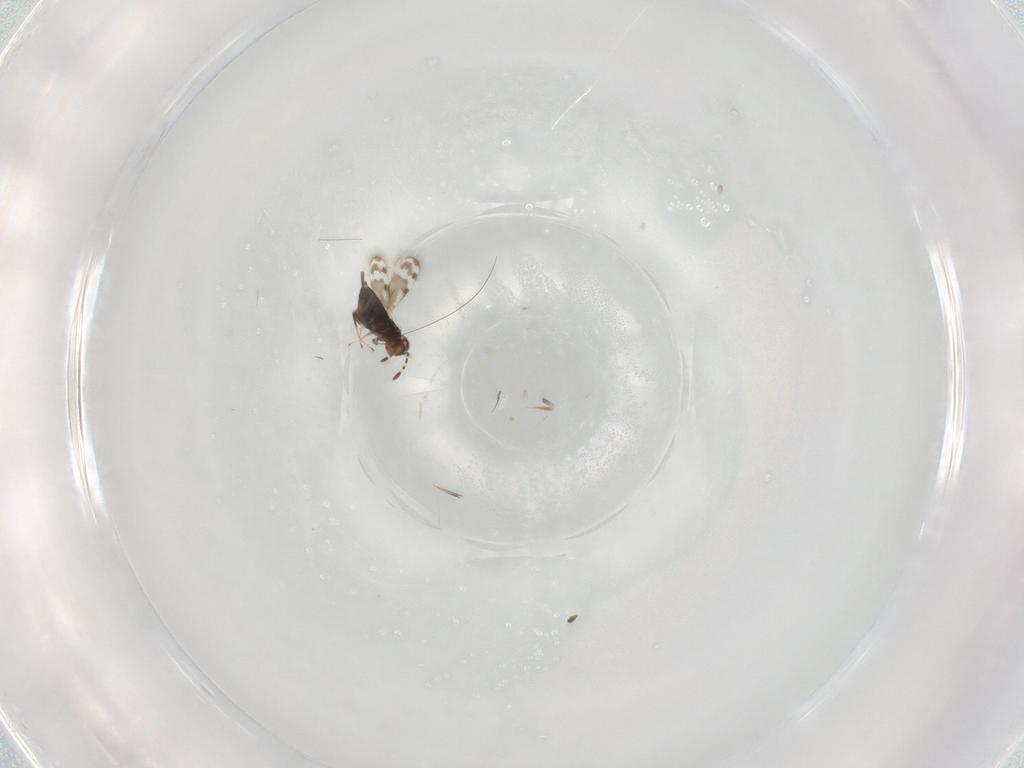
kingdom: Animalia
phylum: Arthropoda
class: Insecta
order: Hymenoptera
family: Aphelinidae
